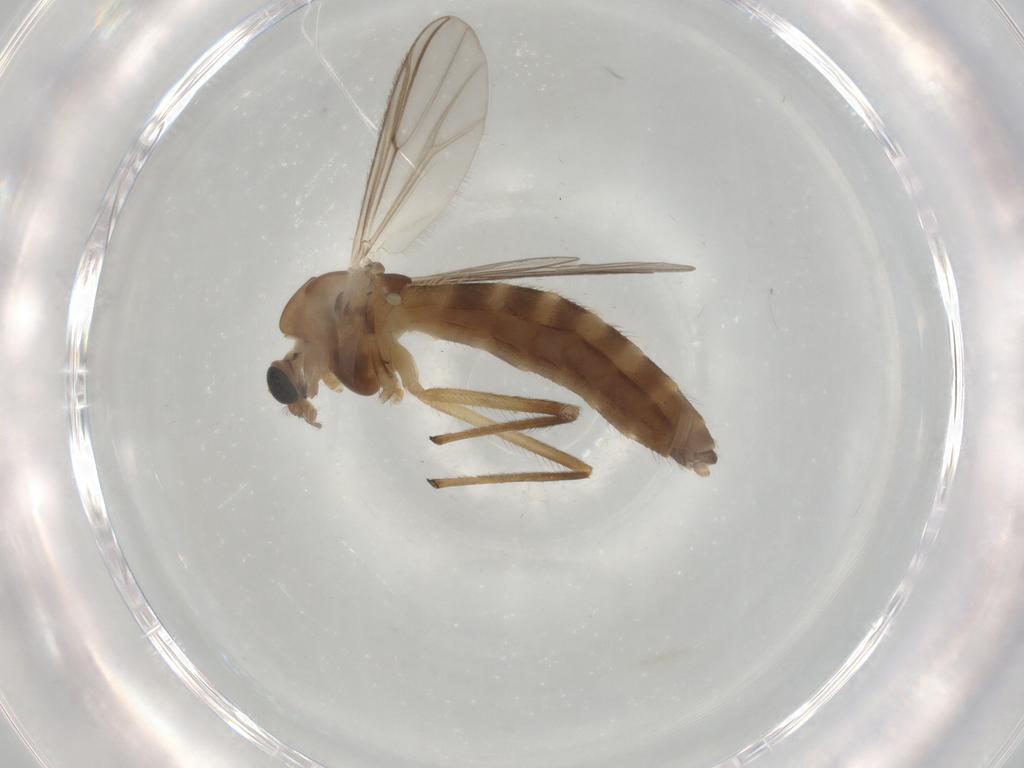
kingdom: Animalia
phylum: Arthropoda
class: Insecta
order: Diptera
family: Chironomidae
